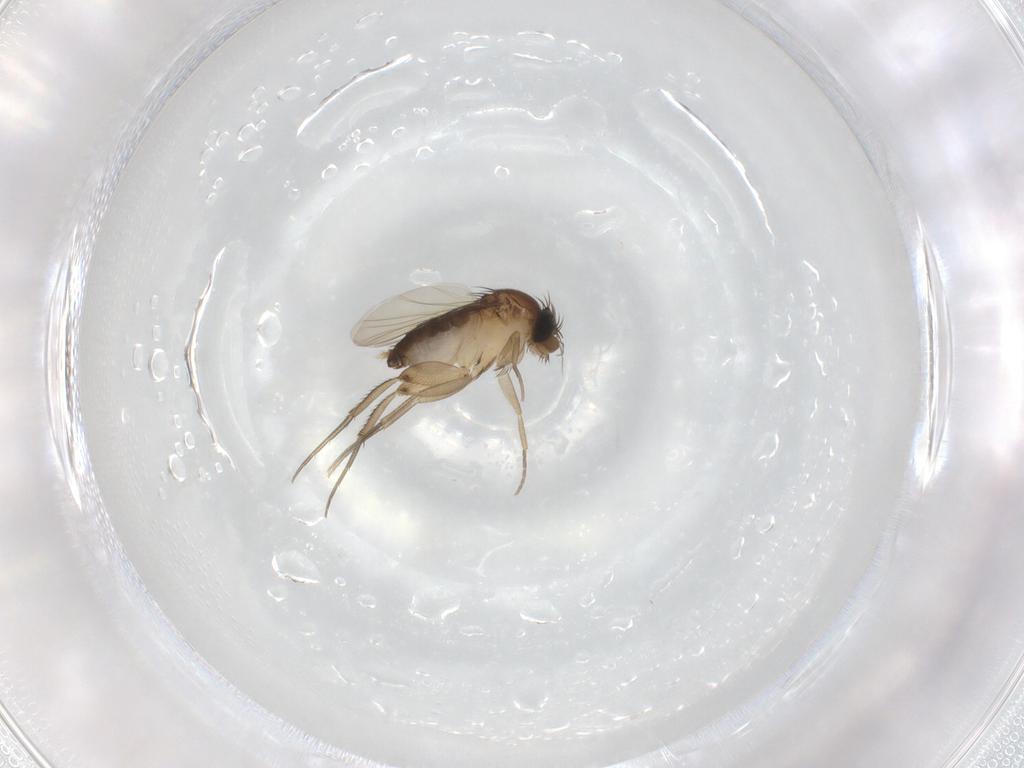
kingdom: Animalia
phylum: Arthropoda
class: Insecta
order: Diptera
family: Phoridae
